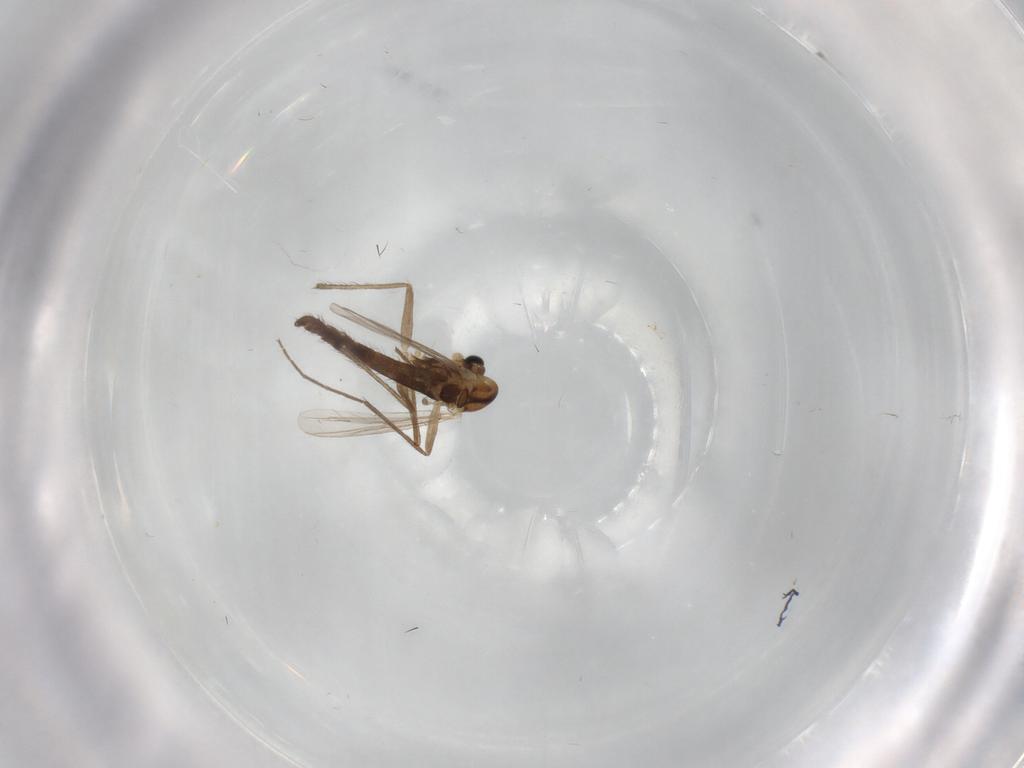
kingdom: Animalia
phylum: Arthropoda
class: Insecta
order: Diptera
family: Chironomidae
